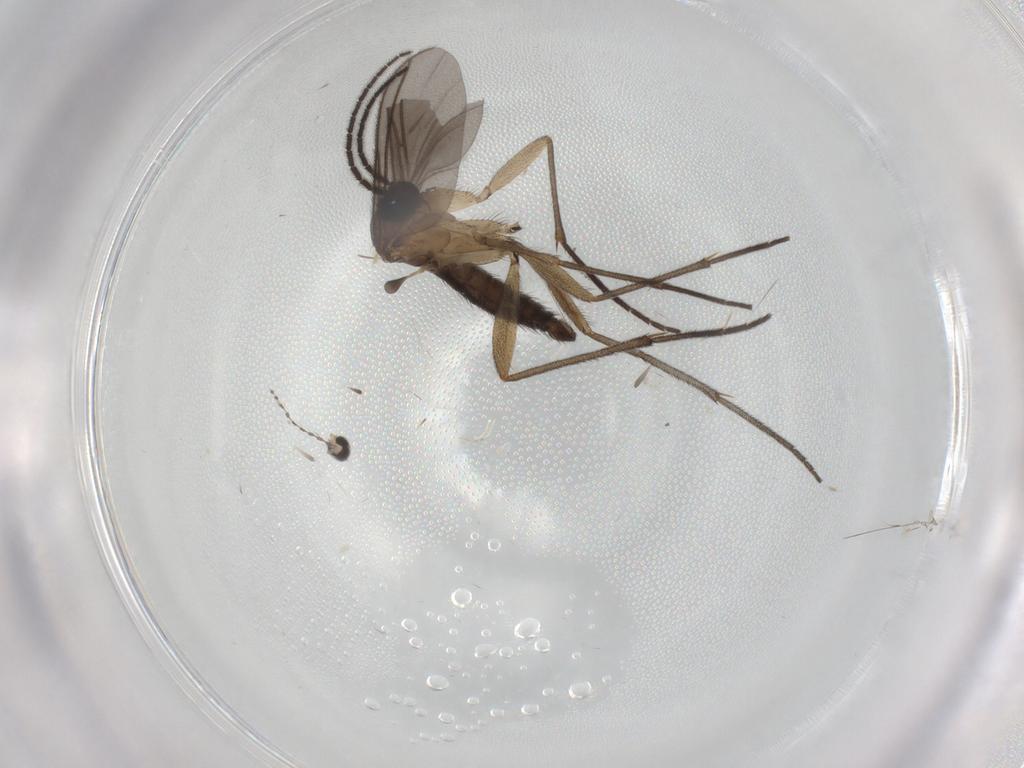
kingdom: Animalia
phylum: Arthropoda
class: Insecta
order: Diptera
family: Cecidomyiidae
